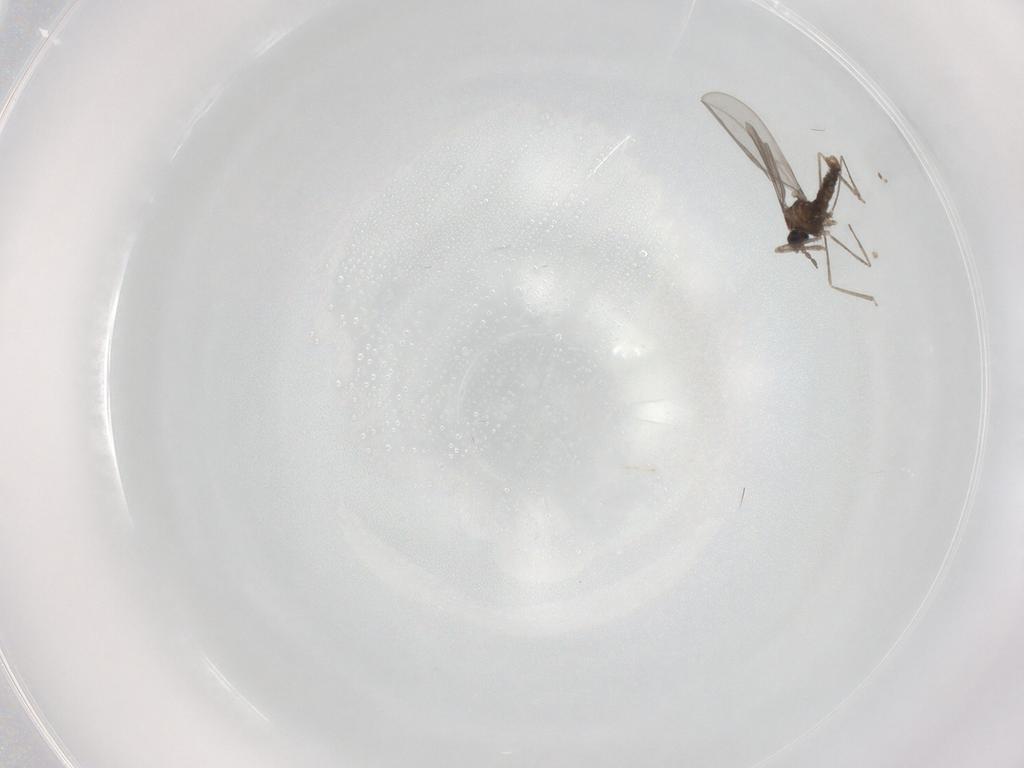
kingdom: Animalia
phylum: Arthropoda
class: Insecta
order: Diptera
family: Cecidomyiidae
